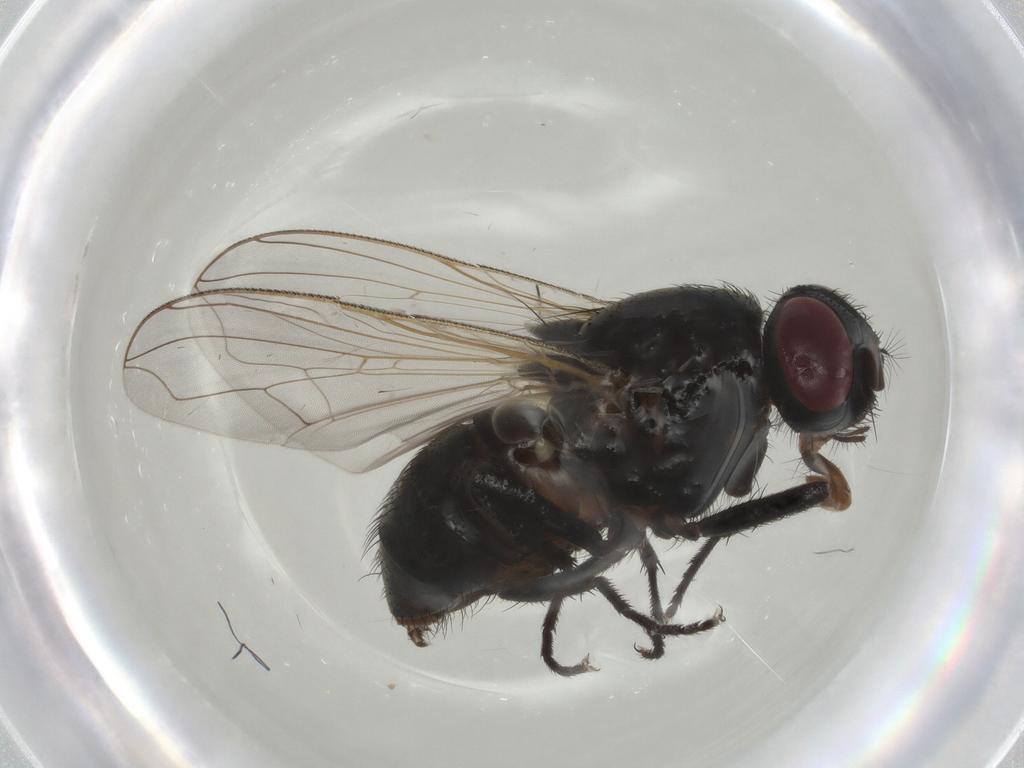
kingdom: Animalia
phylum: Arthropoda
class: Insecta
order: Diptera
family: Muscidae
